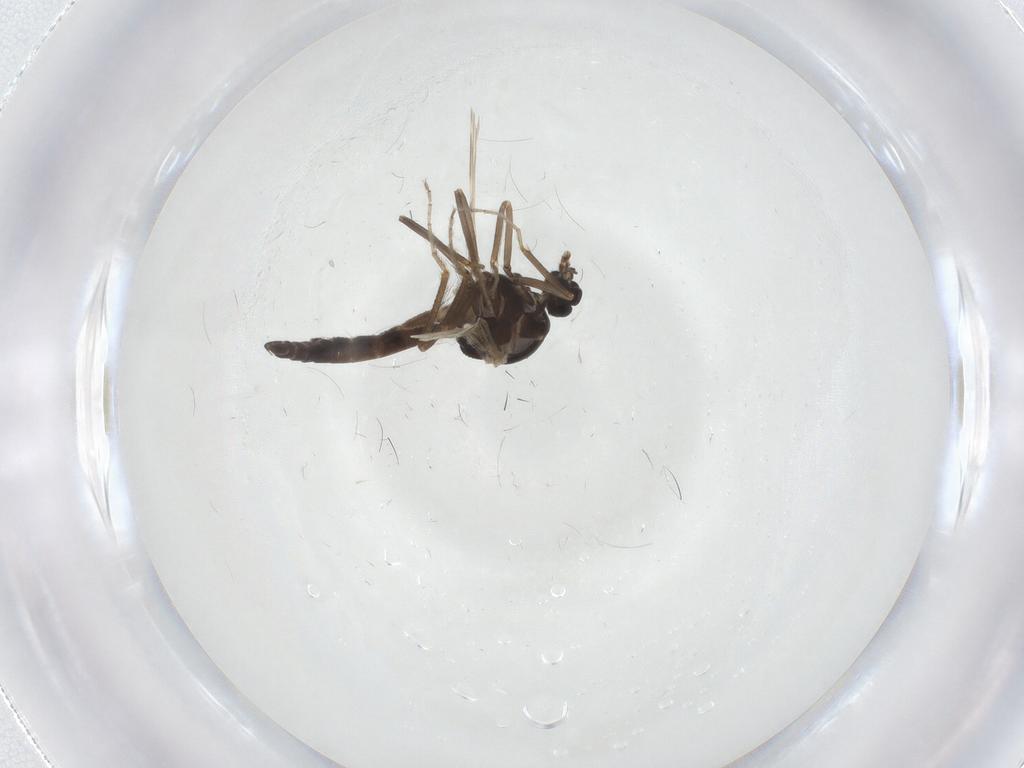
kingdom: Animalia
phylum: Arthropoda
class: Insecta
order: Diptera
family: Ceratopogonidae
